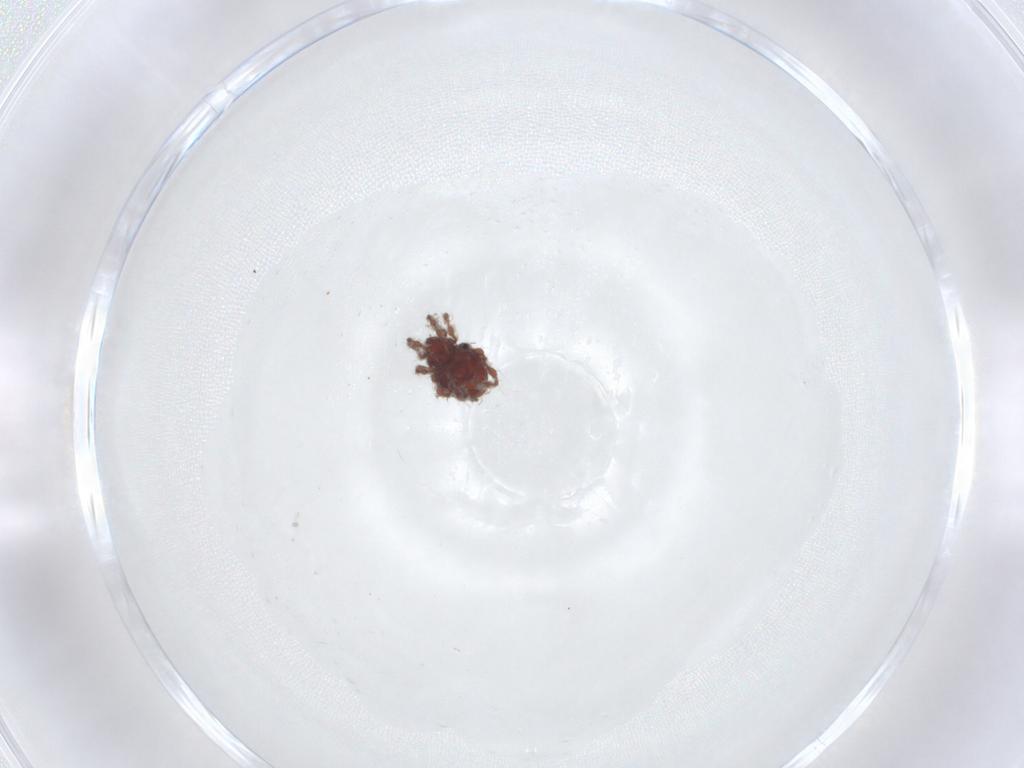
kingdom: Animalia
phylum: Arthropoda
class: Arachnida
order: Sarcoptiformes
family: Damaeidae
